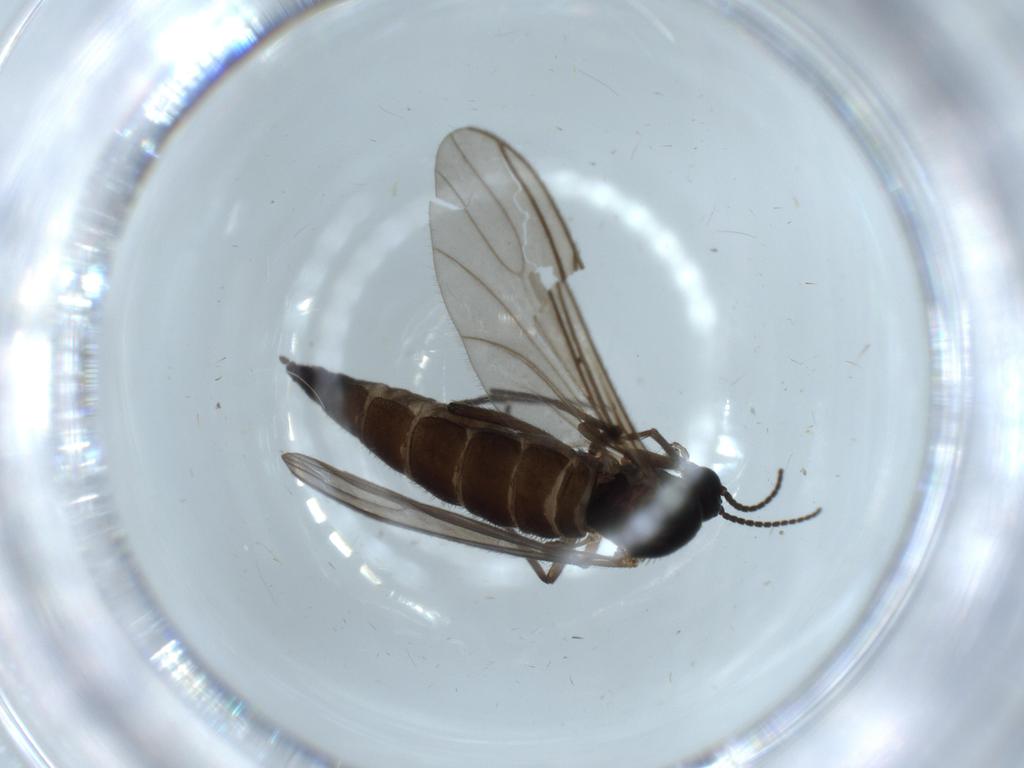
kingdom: Animalia
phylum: Arthropoda
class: Insecta
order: Diptera
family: Sciaridae
